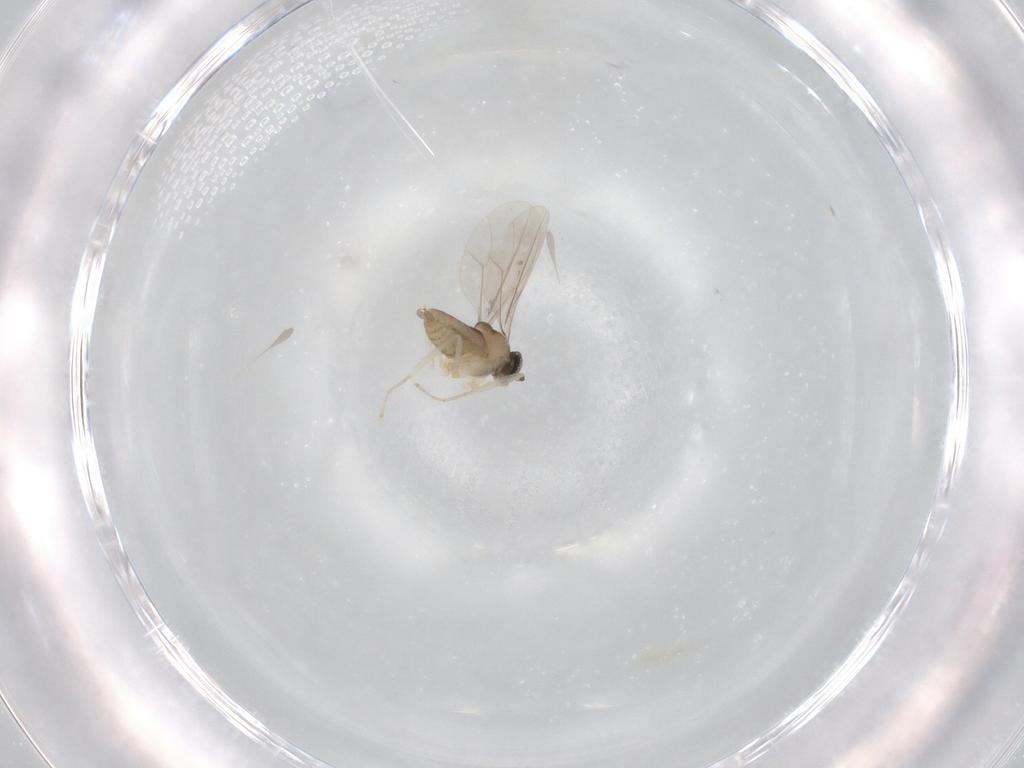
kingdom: Animalia
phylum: Arthropoda
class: Insecta
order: Diptera
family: Cecidomyiidae
